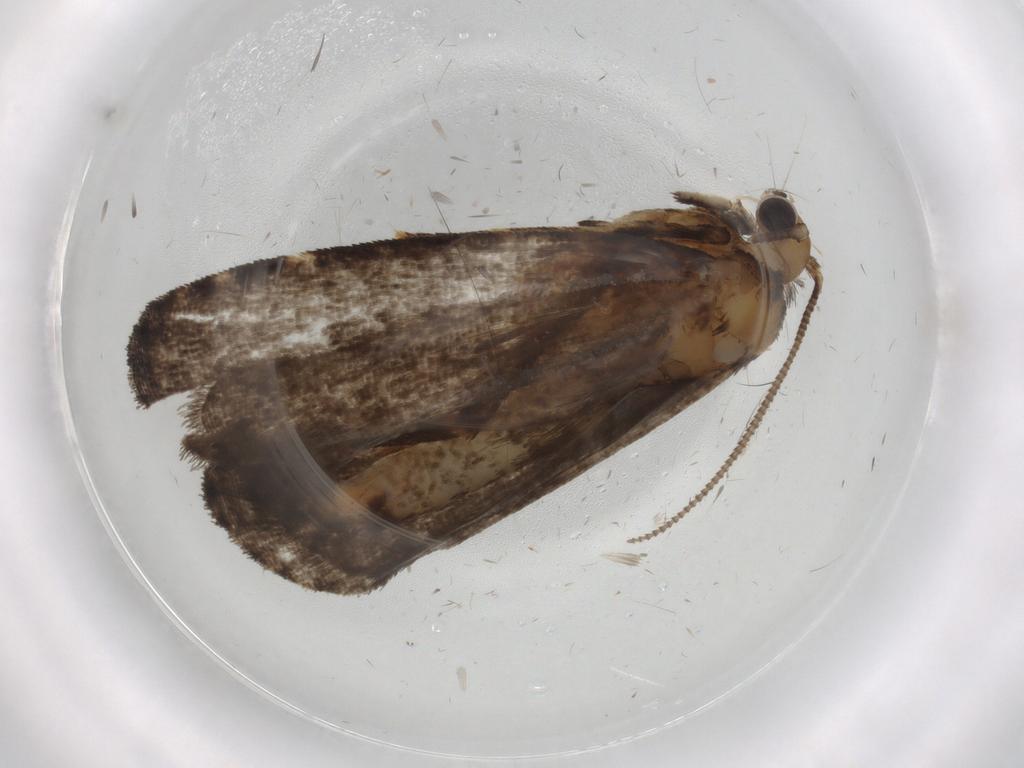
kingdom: Animalia
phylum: Arthropoda
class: Insecta
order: Lepidoptera
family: Tineidae
